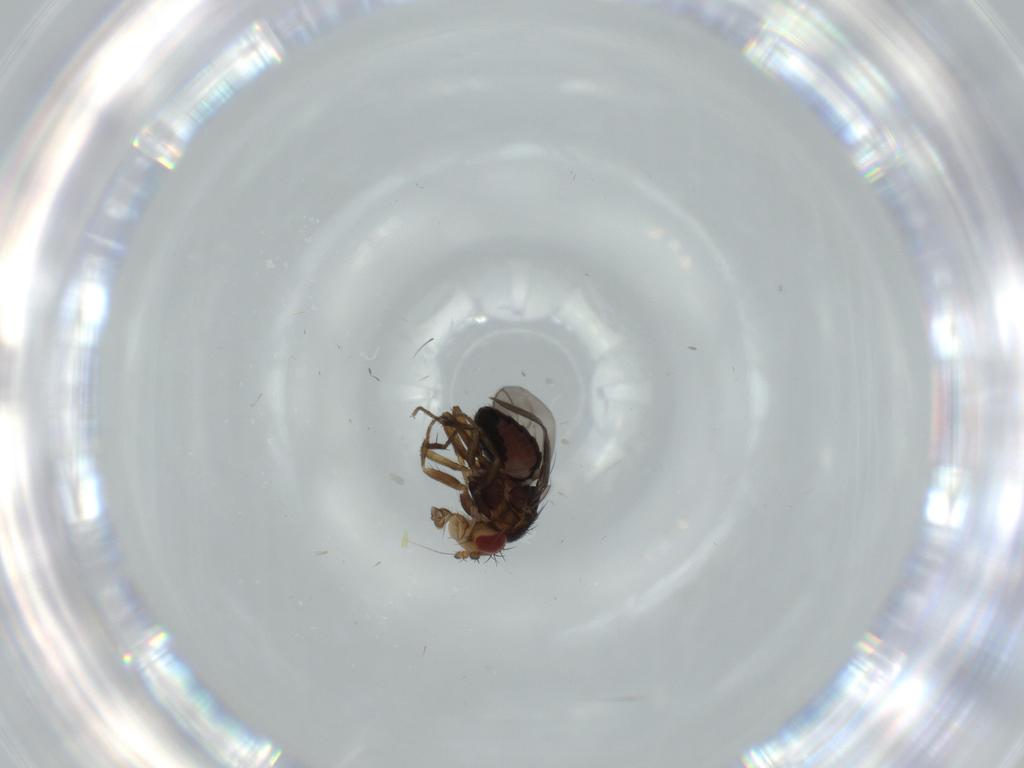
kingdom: Animalia
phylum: Arthropoda
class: Insecta
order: Diptera
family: Sphaeroceridae
